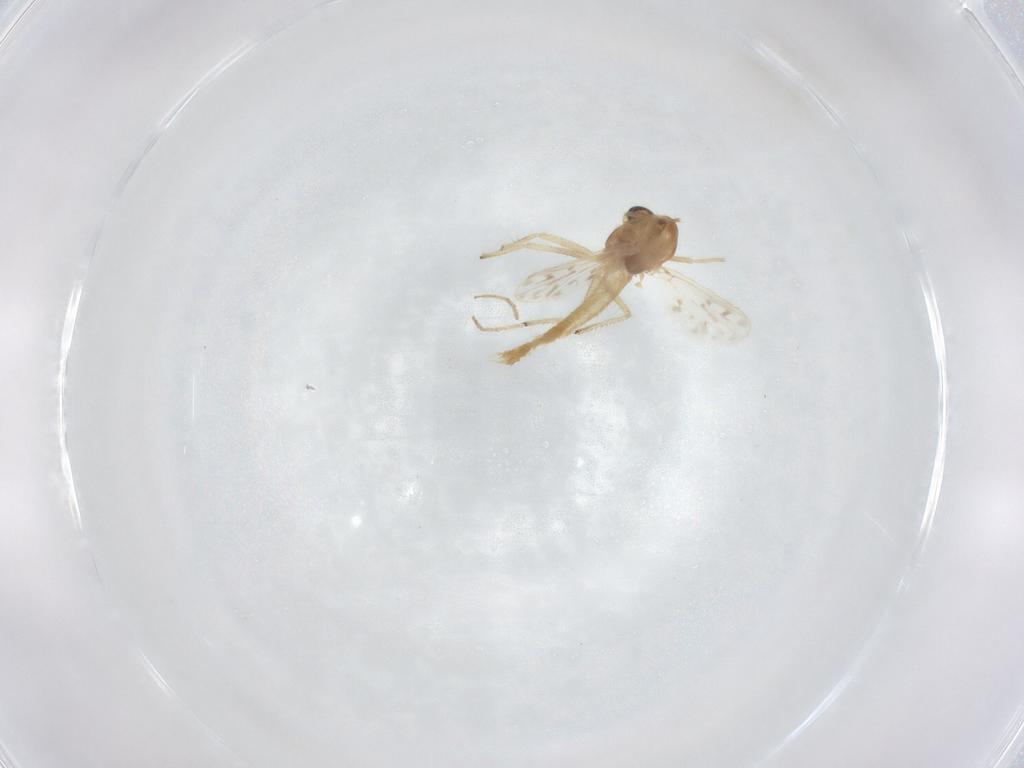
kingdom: Animalia
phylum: Arthropoda
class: Insecta
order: Diptera
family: Chironomidae
